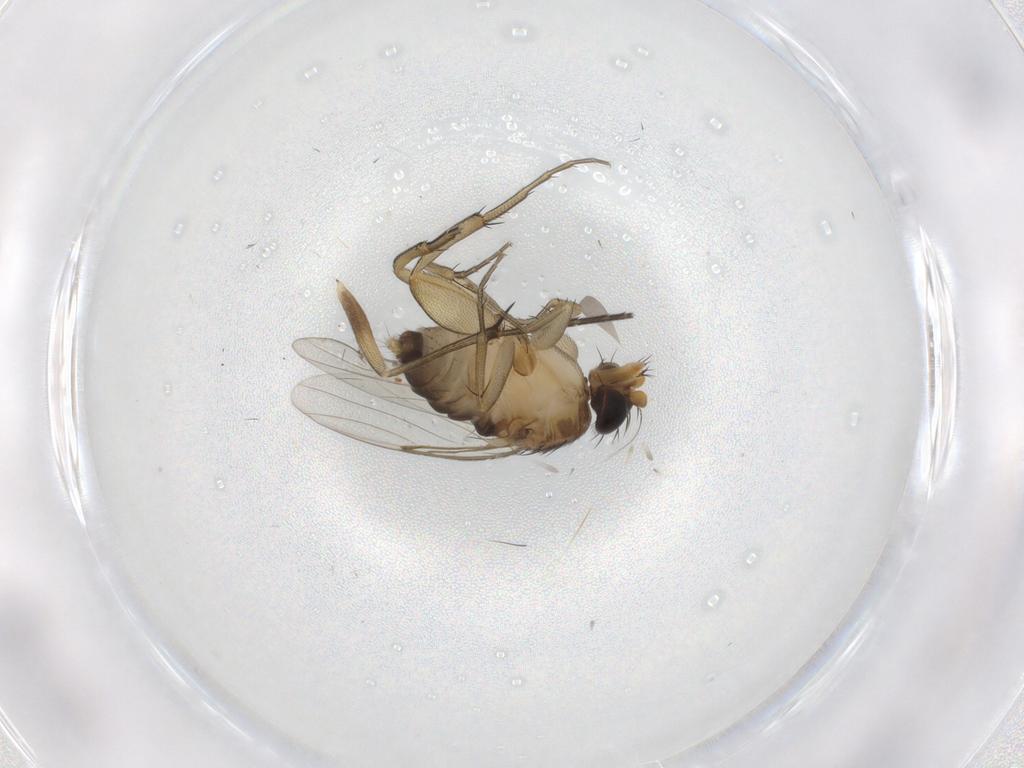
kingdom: Animalia
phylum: Arthropoda
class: Insecta
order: Diptera
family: Phoridae
